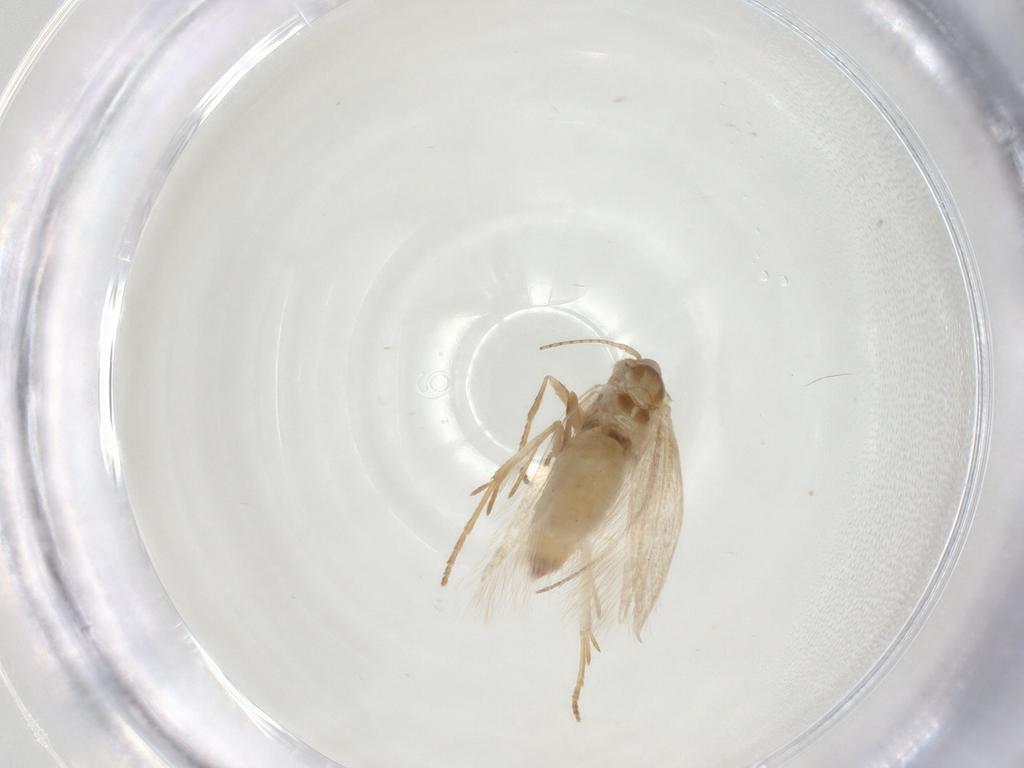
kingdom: Animalia
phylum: Arthropoda
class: Insecta
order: Lepidoptera
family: Bucculatricidae
